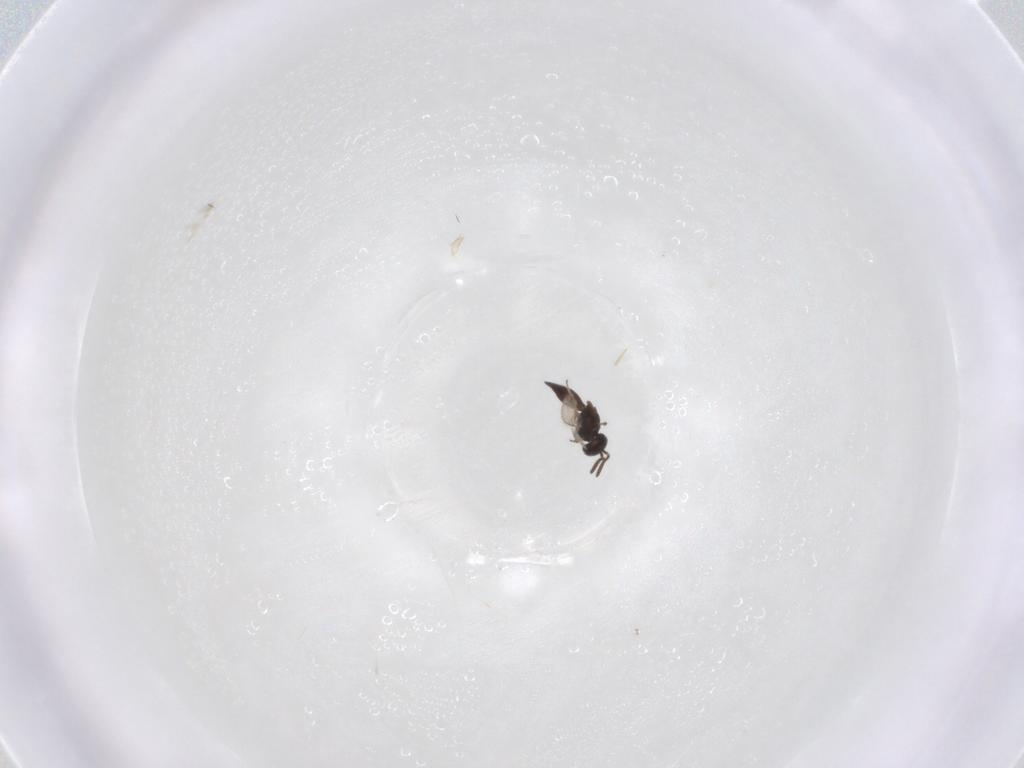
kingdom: Animalia
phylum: Arthropoda
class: Insecta
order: Hymenoptera
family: Scelionidae
